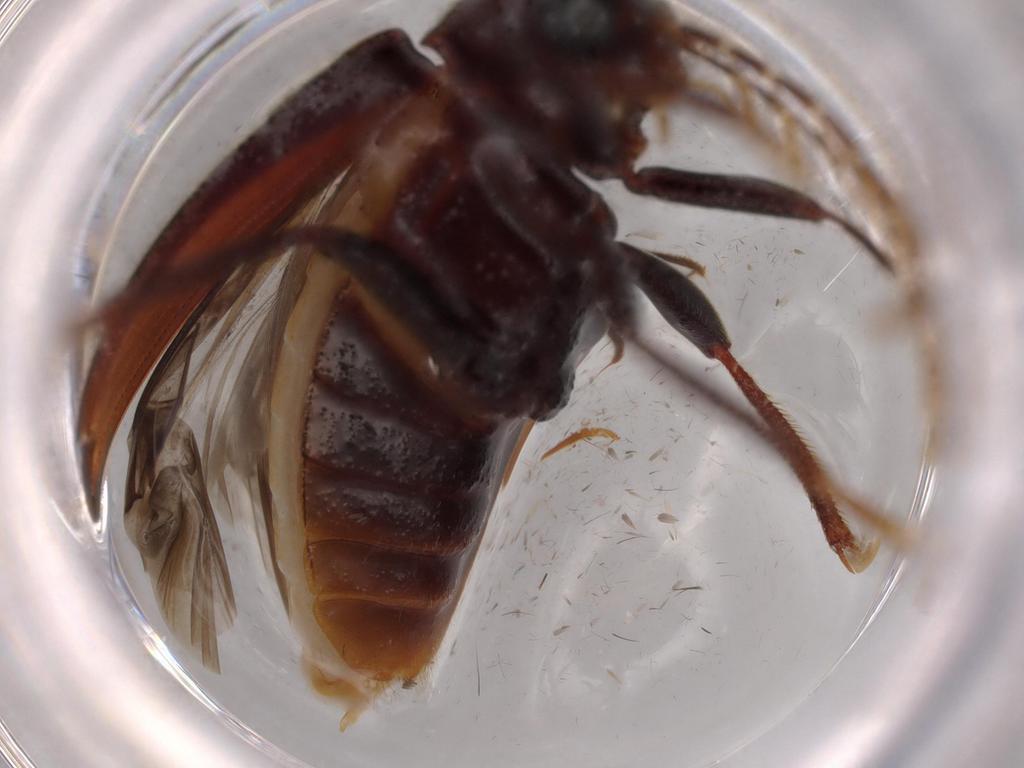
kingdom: Animalia
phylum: Arthropoda
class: Insecta
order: Coleoptera
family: Ptilodactylidae
